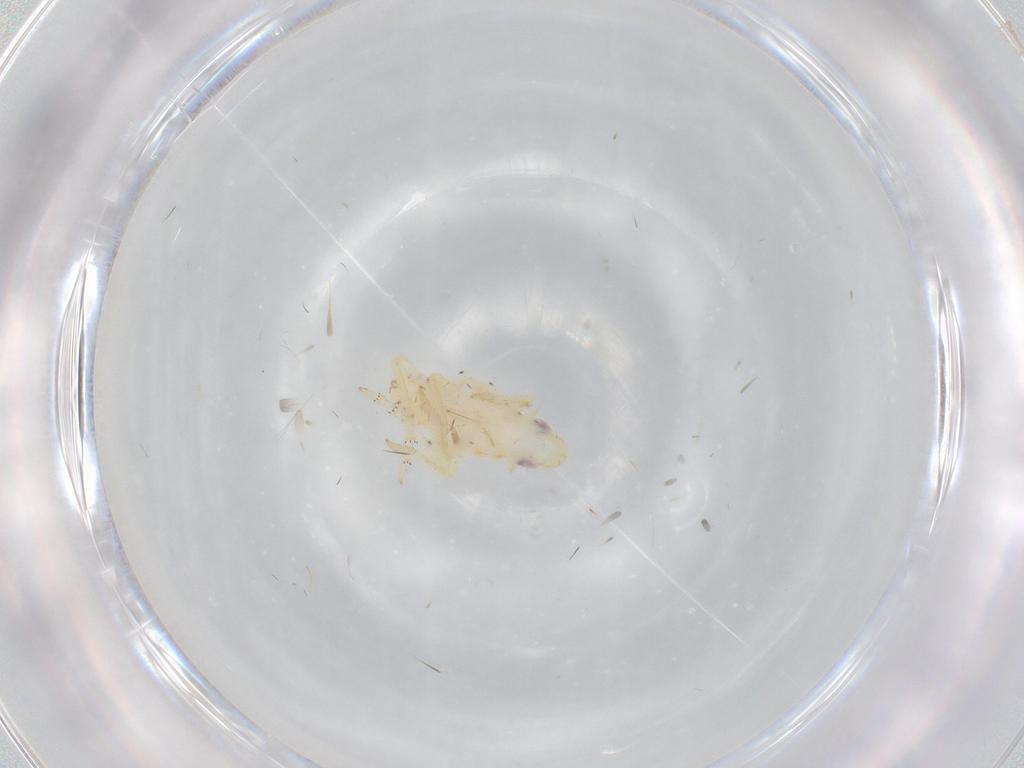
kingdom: Animalia
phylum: Arthropoda
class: Insecta
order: Hemiptera
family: Tropiduchidae
